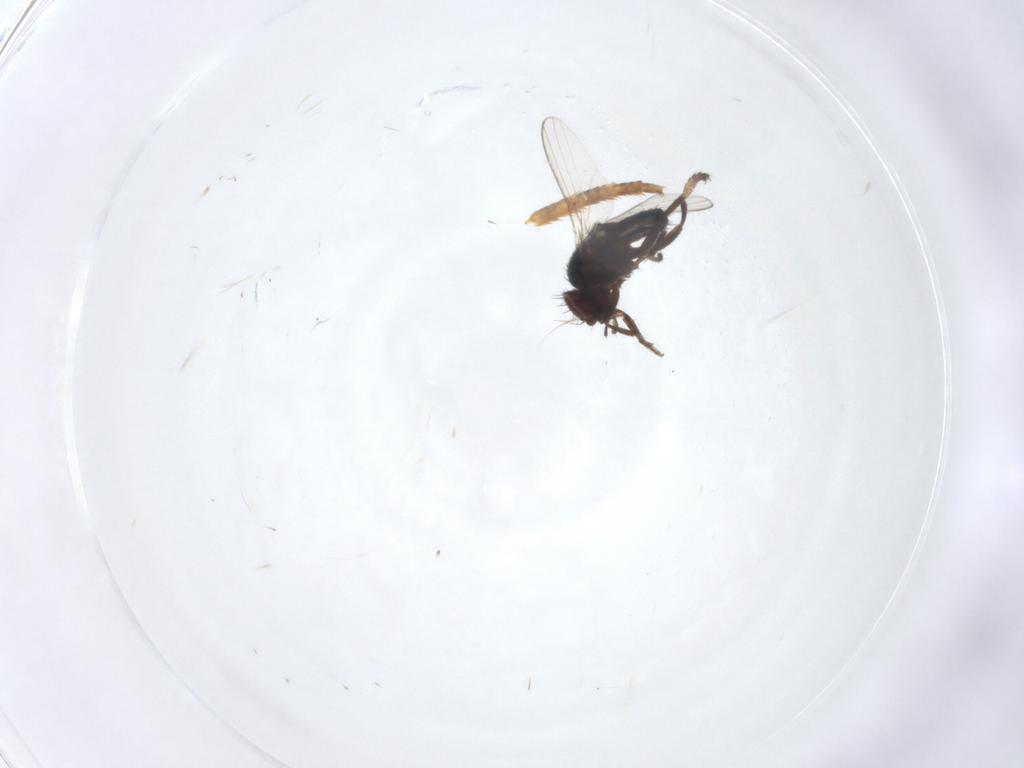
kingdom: Animalia
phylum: Arthropoda
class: Insecta
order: Diptera
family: Milichiidae
